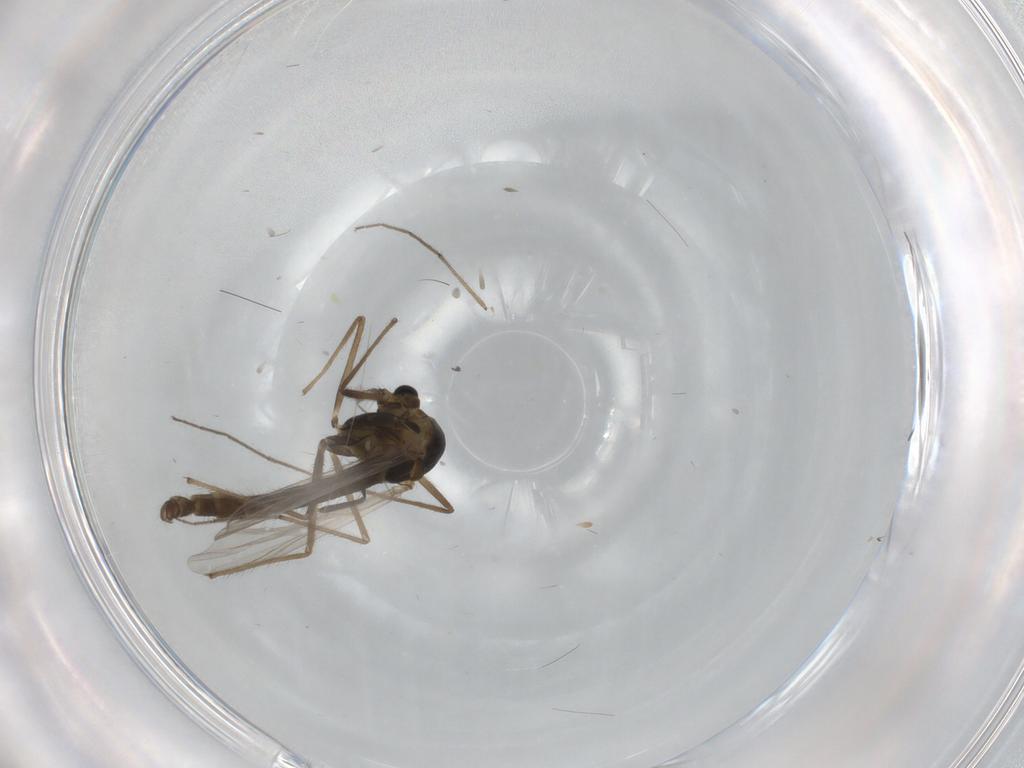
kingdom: Animalia
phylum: Arthropoda
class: Insecta
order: Diptera
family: Chironomidae
